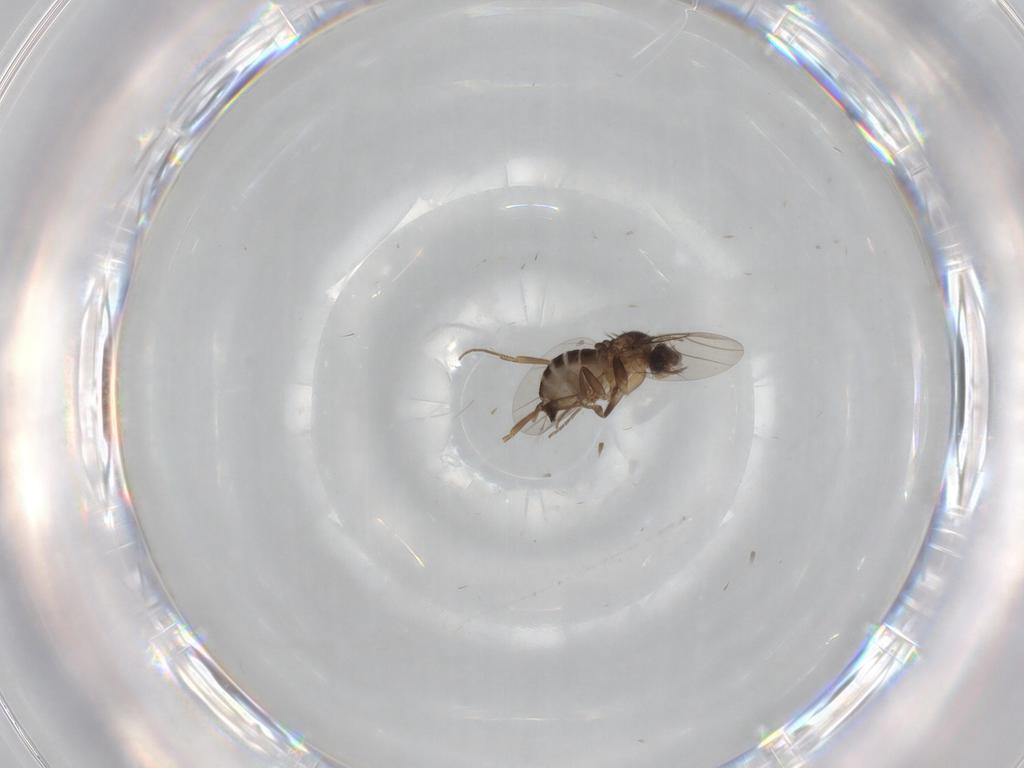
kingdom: Animalia
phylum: Arthropoda
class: Insecta
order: Diptera
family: Phoridae
